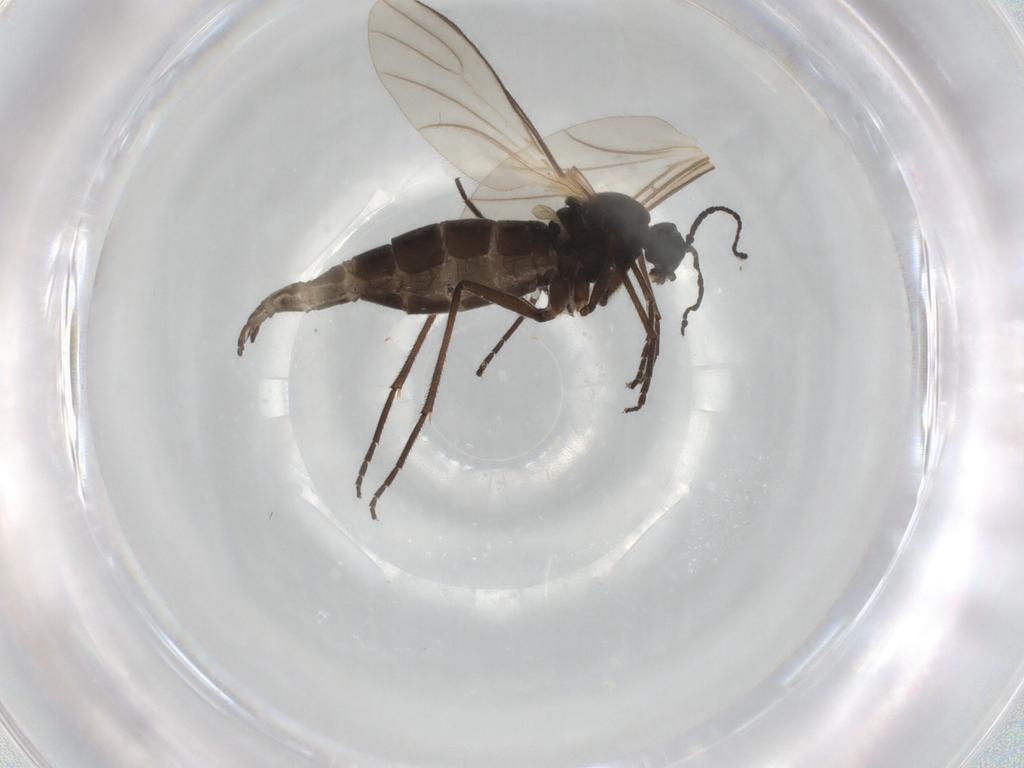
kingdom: Animalia
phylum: Arthropoda
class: Insecta
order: Diptera
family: Sciaridae
